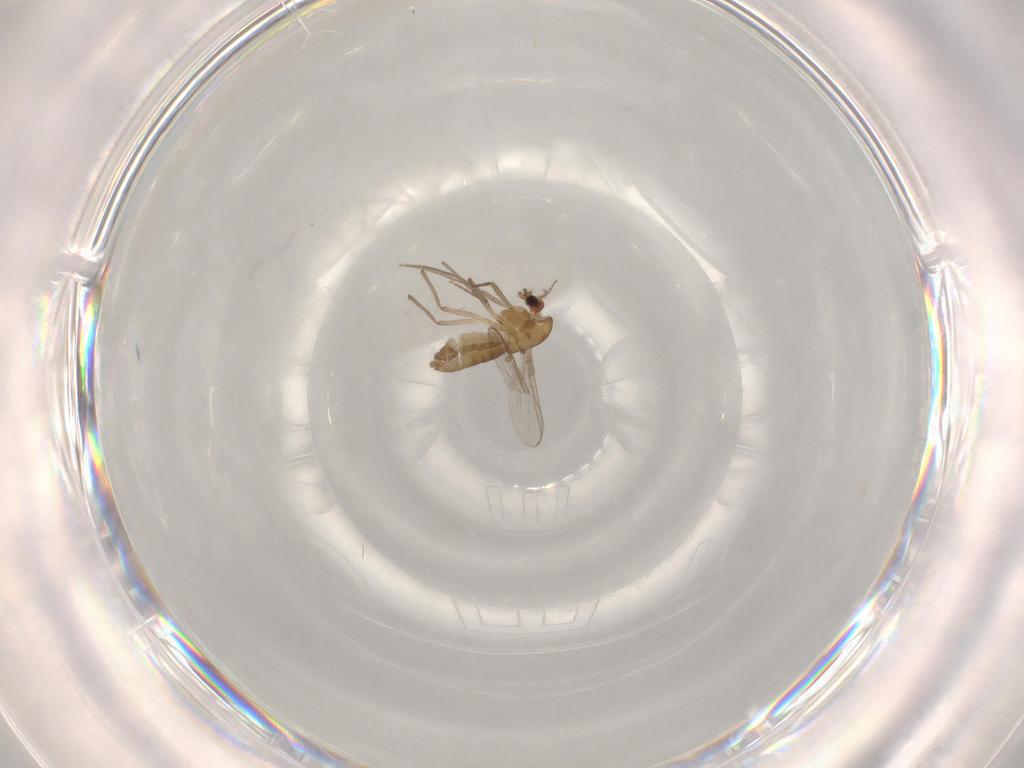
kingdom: Animalia
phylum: Arthropoda
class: Insecta
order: Diptera
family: Chironomidae
